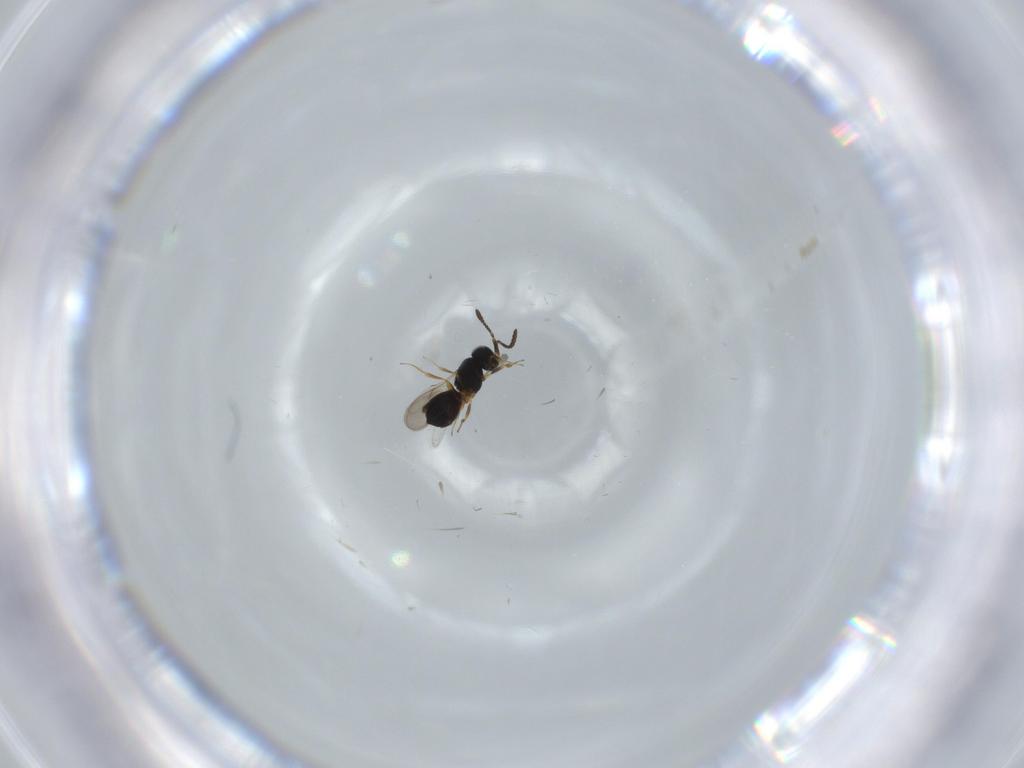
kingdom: Animalia
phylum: Arthropoda
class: Insecta
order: Hymenoptera
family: Scelionidae
